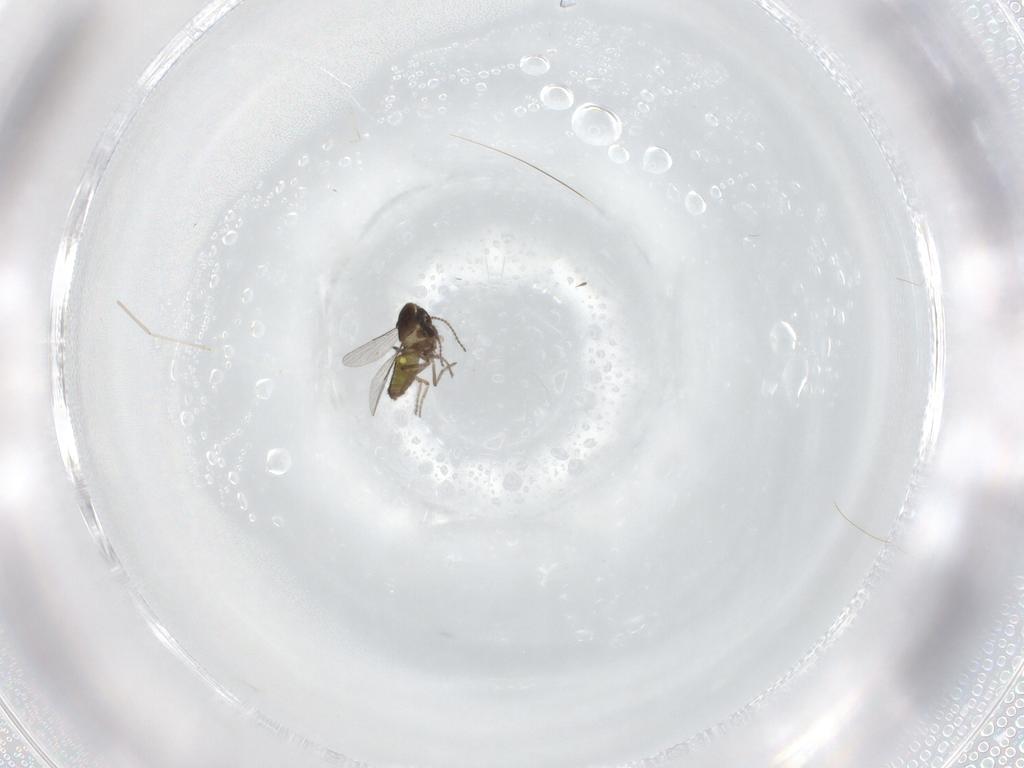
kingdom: Animalia
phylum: Arthropoda
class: Insecta
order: Diptera
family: Ceratopogonidae
